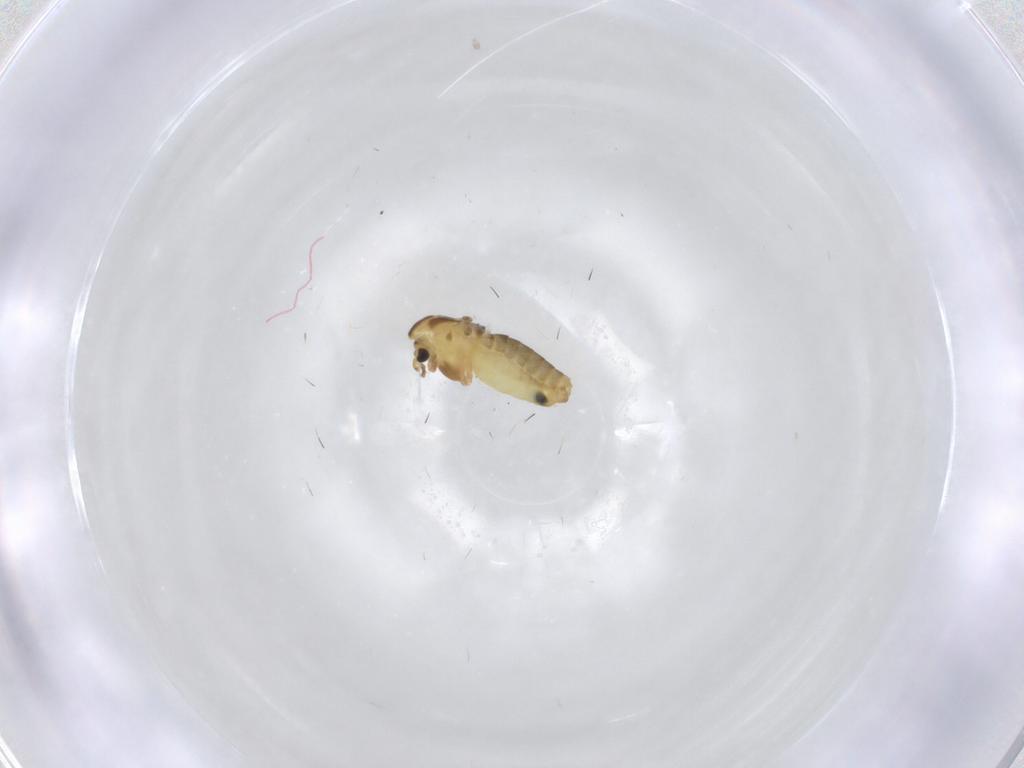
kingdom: Animalia
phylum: Arthropoda
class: Insecta
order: Diptera
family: Chironomidae
